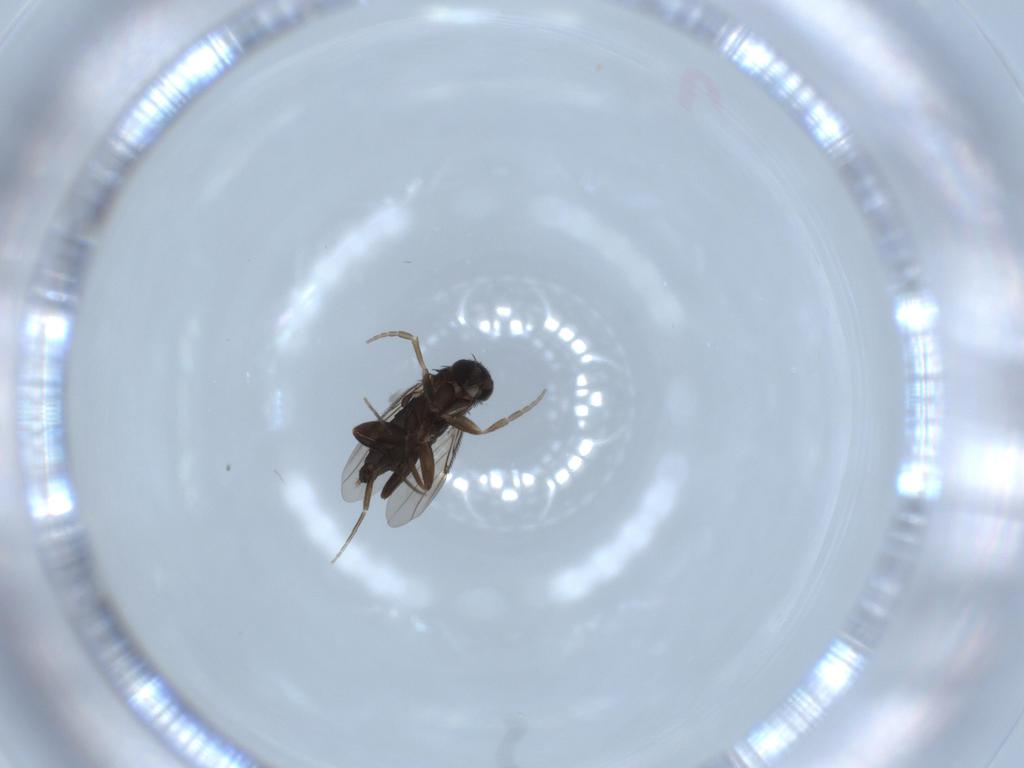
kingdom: Animalia
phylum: Arthropoda
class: Insecta
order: Diptera
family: Phoridae
